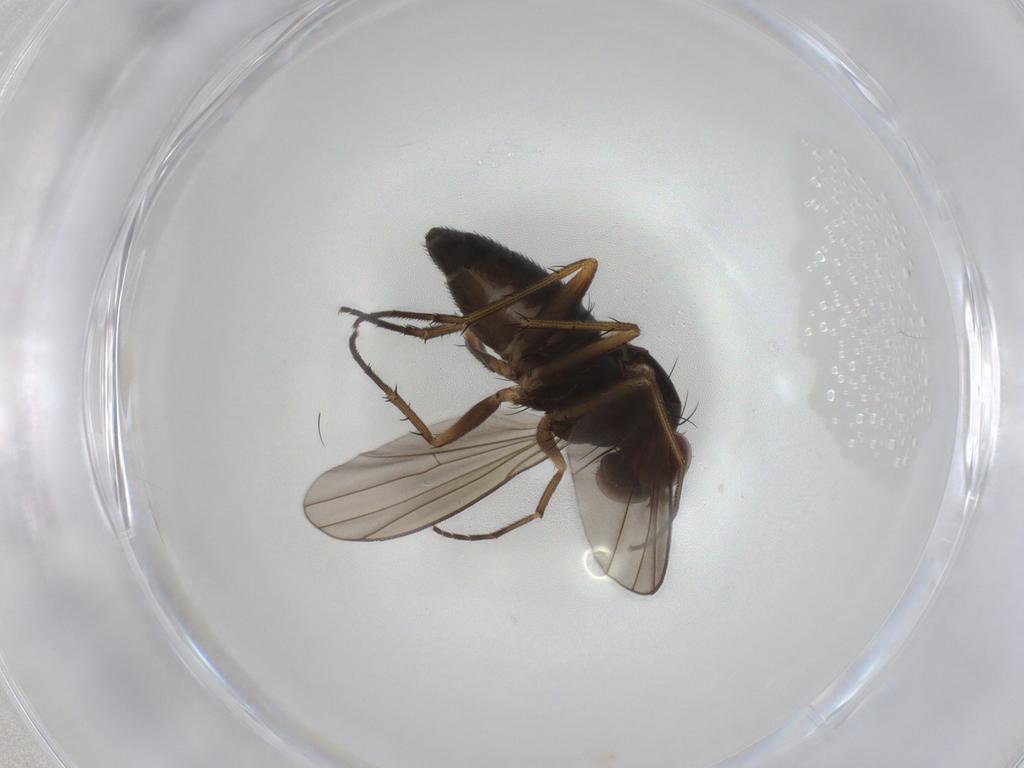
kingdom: Animalia
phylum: Arthropoda
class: Insecta
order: Diptera
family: Dolichopodidae
